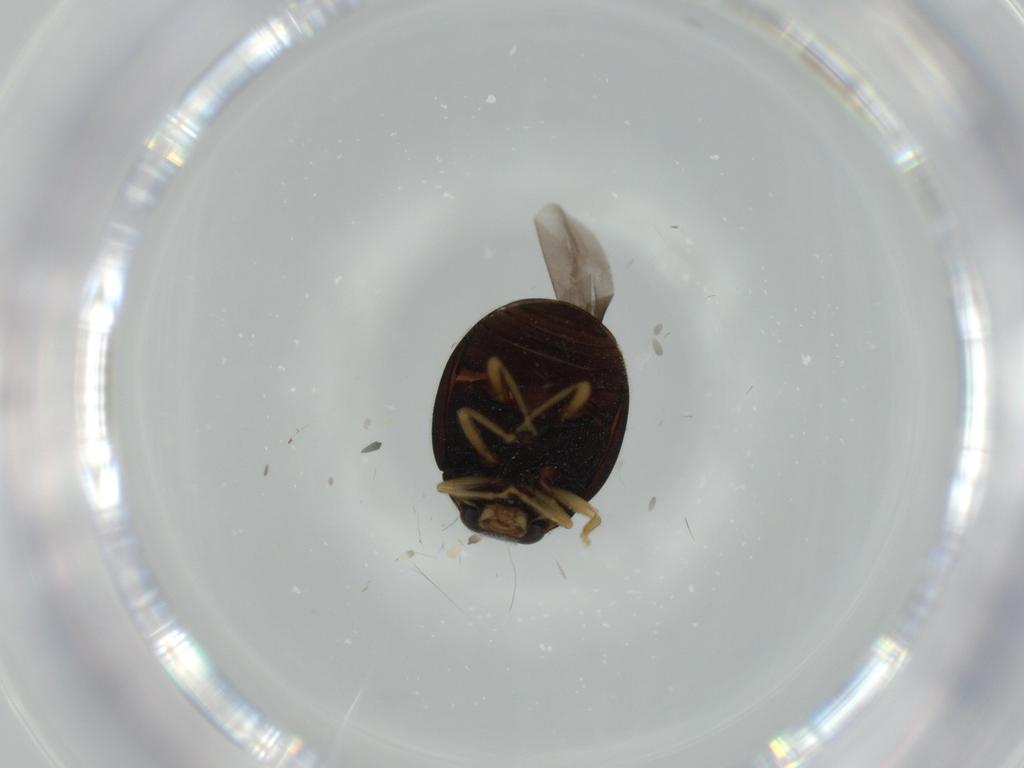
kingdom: Animalia
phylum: Arthropoda
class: Insecta
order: Coleoptera
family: Coccinellidae
